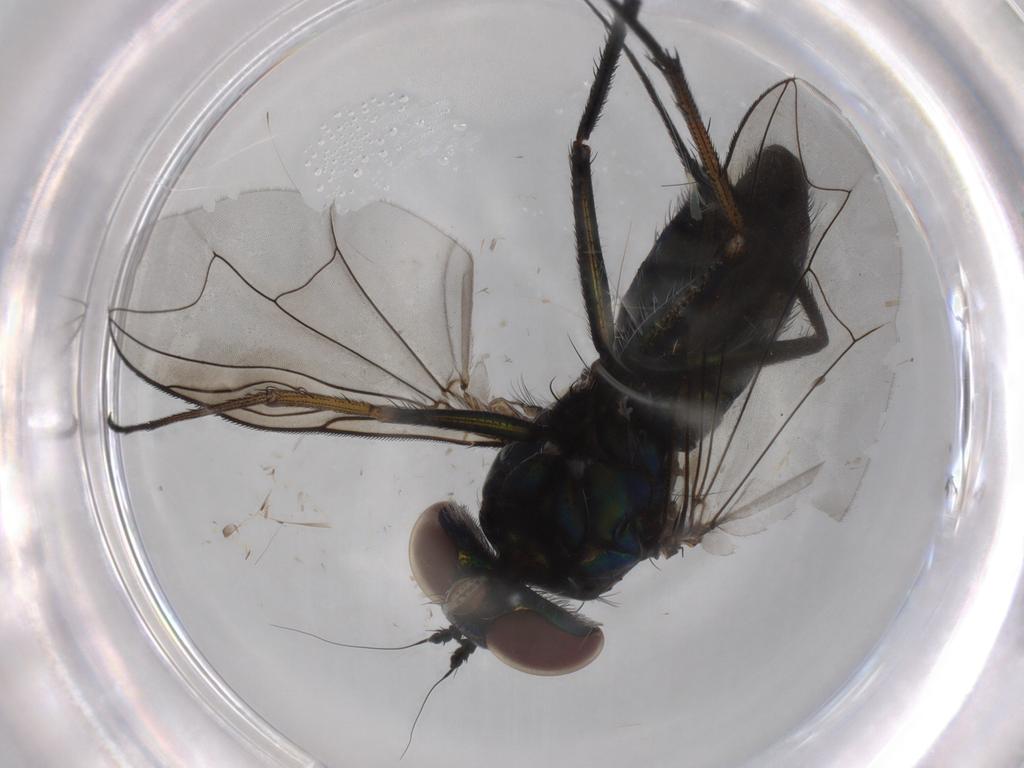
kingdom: Animalia
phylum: Arthropoda
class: Insecta
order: Diptera
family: Dolichopodidae
